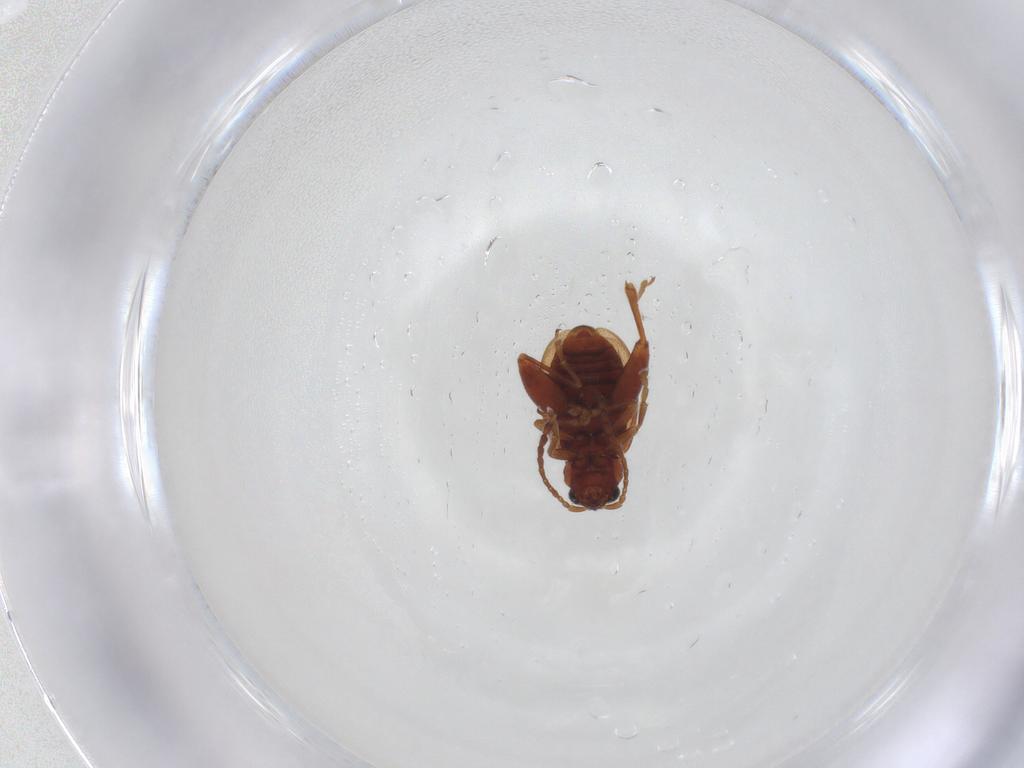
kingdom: Animalia
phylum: Arthropoda
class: Insecta
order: Coleoptera
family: Chrysomelidae
